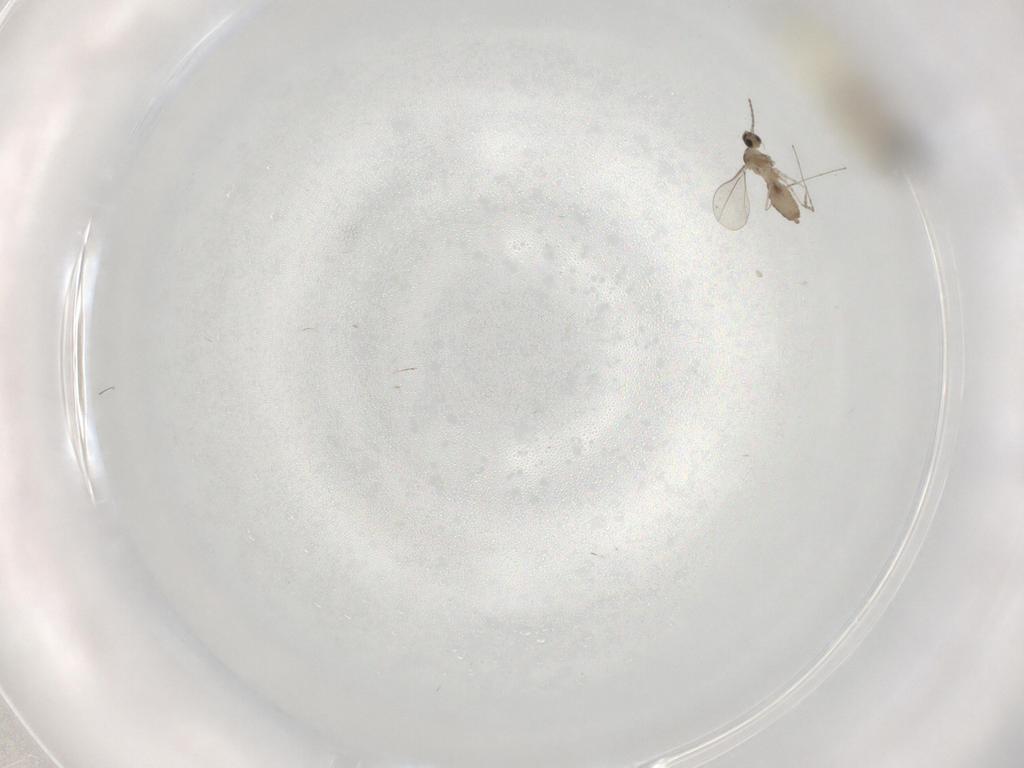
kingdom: Animalia
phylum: Arthropoda
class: Insecta
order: Diptera
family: Cecidomyiidae
